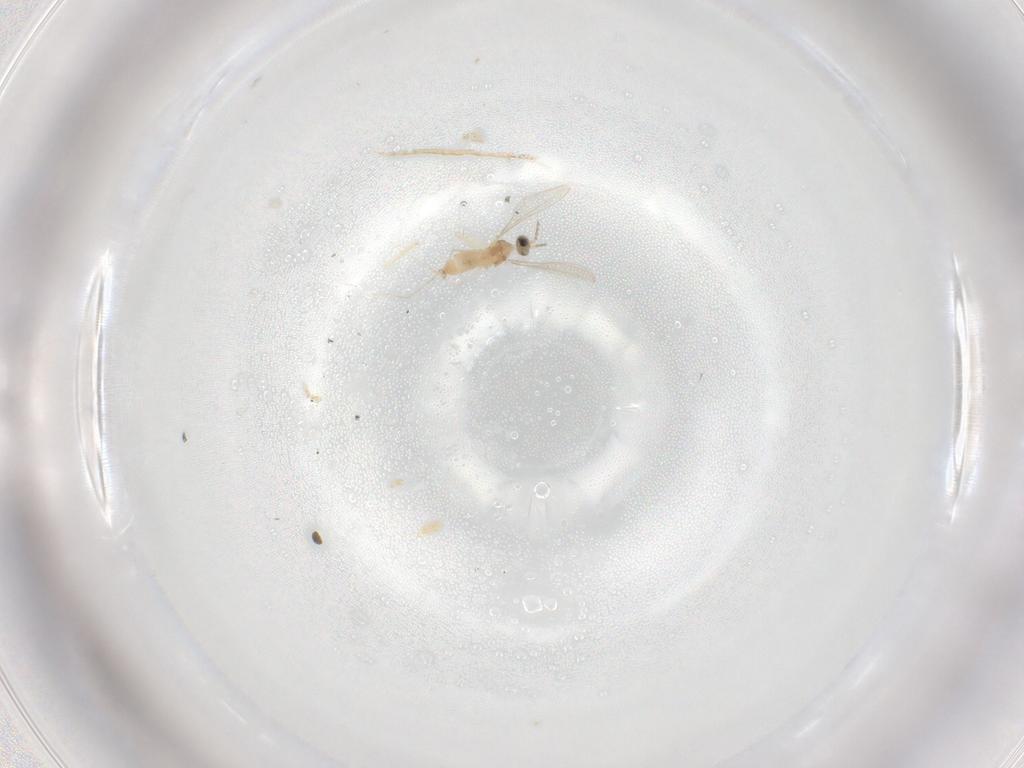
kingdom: Animalia
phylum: Arthropoda
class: Insecta
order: Diptera
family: Cecidomyiidae
